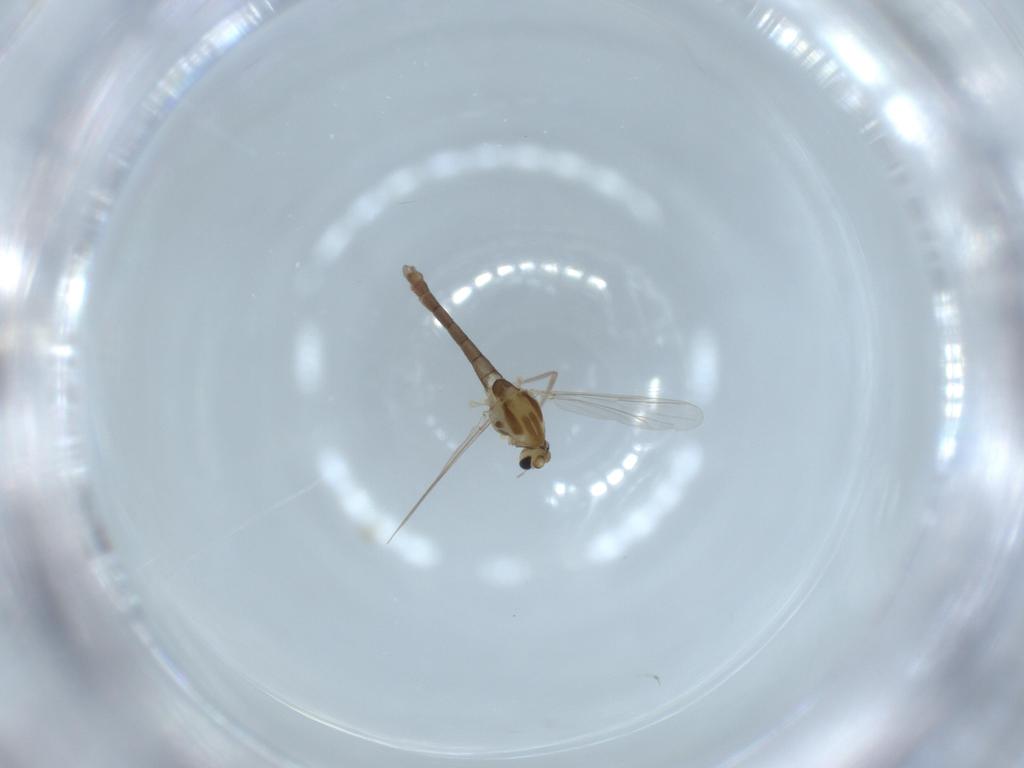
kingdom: Animalia
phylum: Arthropoda
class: Insecta
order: Diptera
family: Chironomidae
